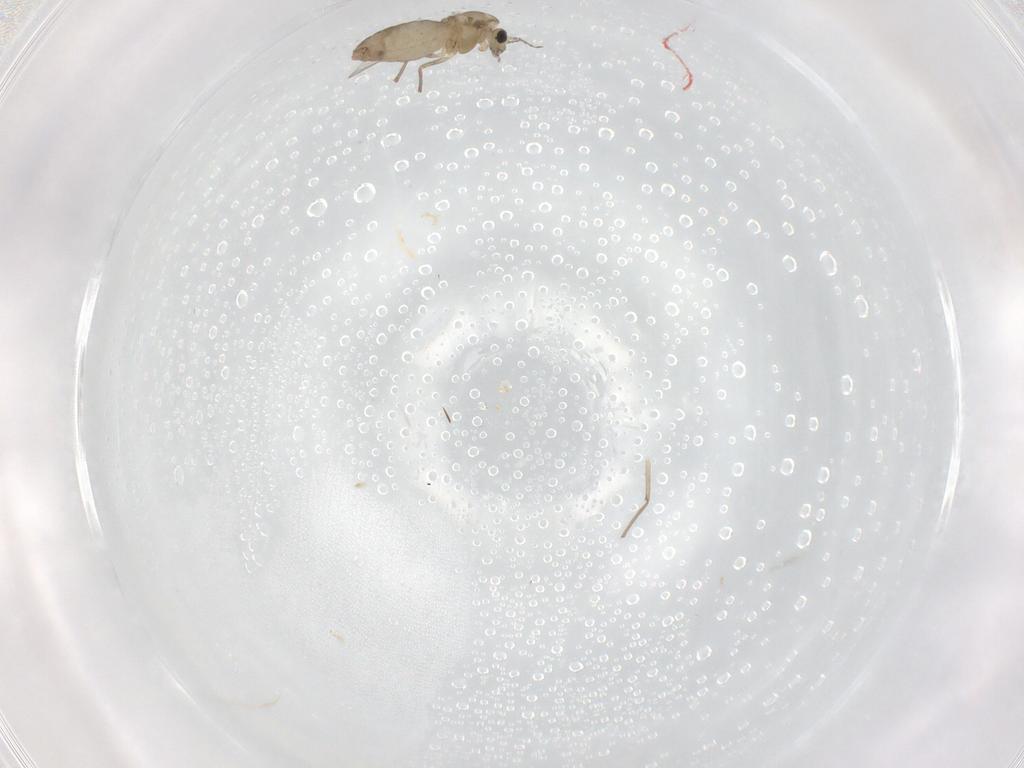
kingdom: Animalia
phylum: Arthropoda
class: Insecta
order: Diptera
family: Chironomidae
